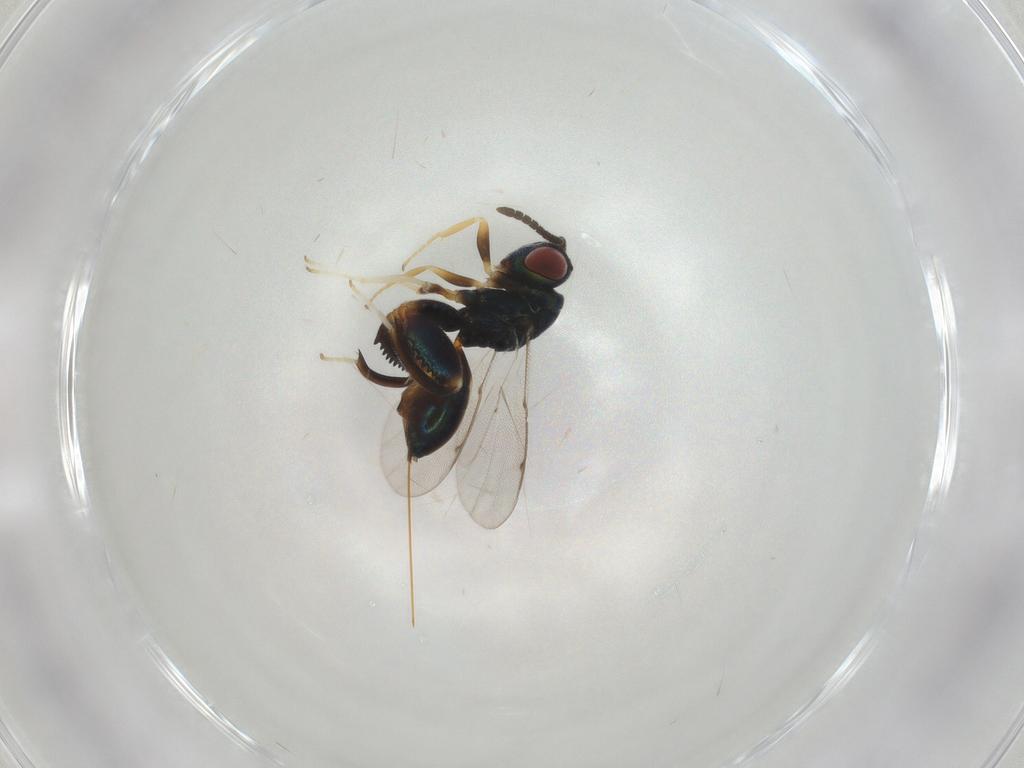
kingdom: Animalia
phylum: Arthropoda
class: Insecta
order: Hymenoptera
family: Torymidae
